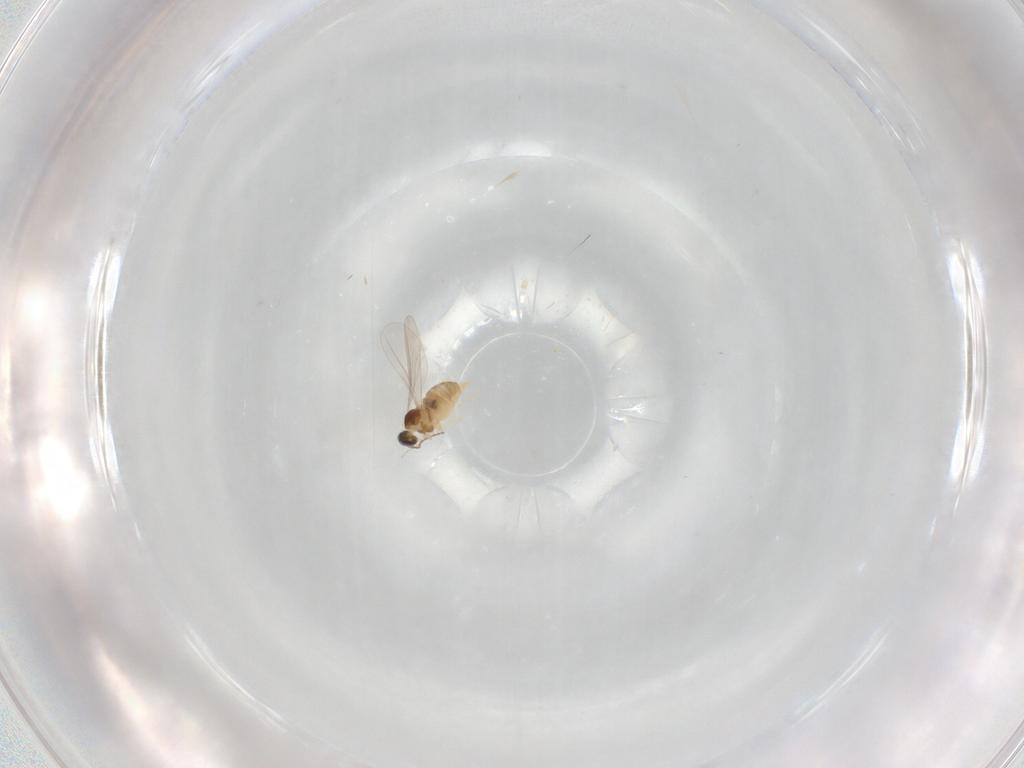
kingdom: Animalia
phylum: Arthropoda
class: Insecta
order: Diptera
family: Cecidomyiidae
